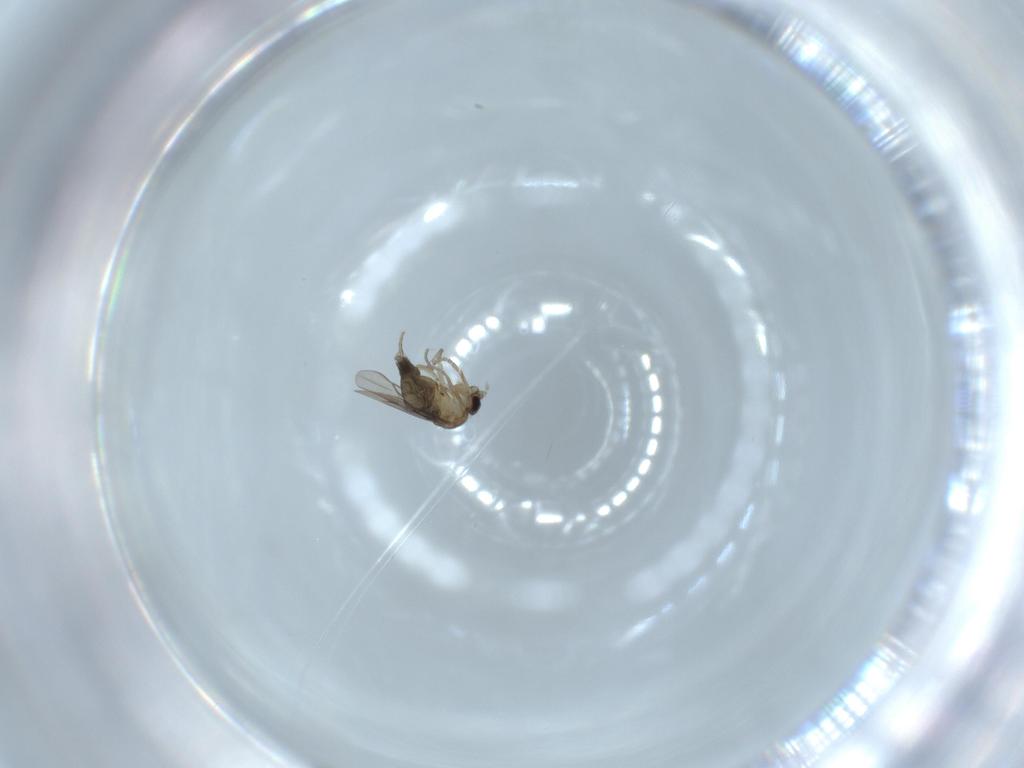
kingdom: Animalia
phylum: Arthropoda
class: Insecta
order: Diptera
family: Phoridae
